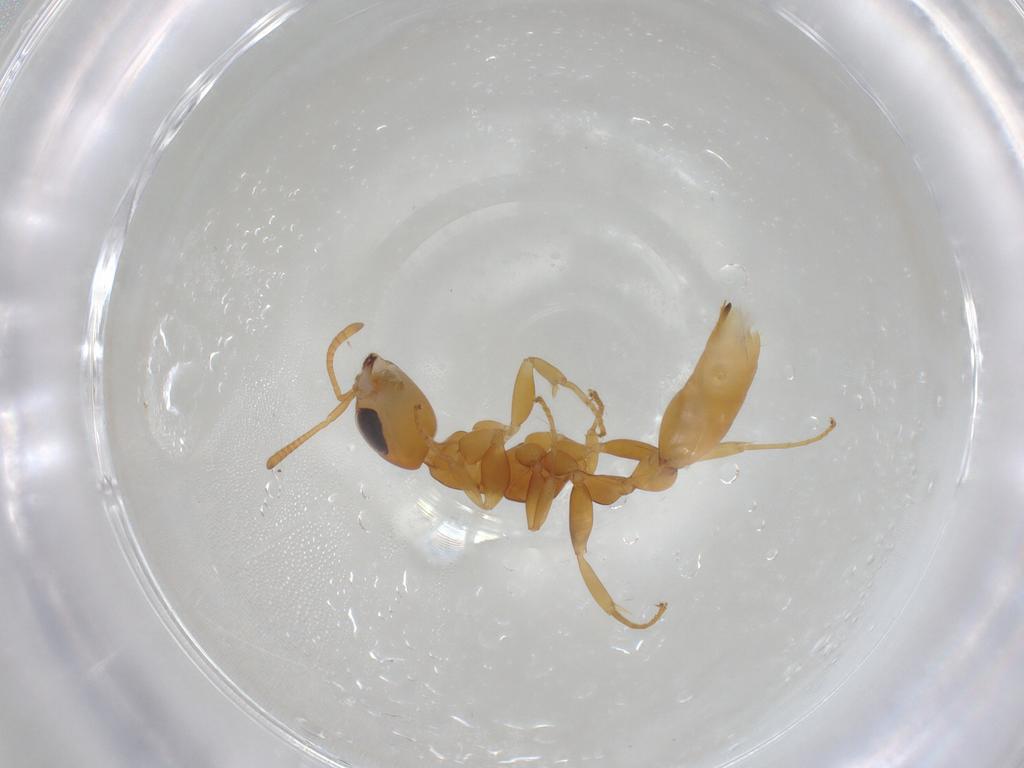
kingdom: Animalia
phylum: Arthropoda
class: Insecta
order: Hymenoptera
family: Formicidae
